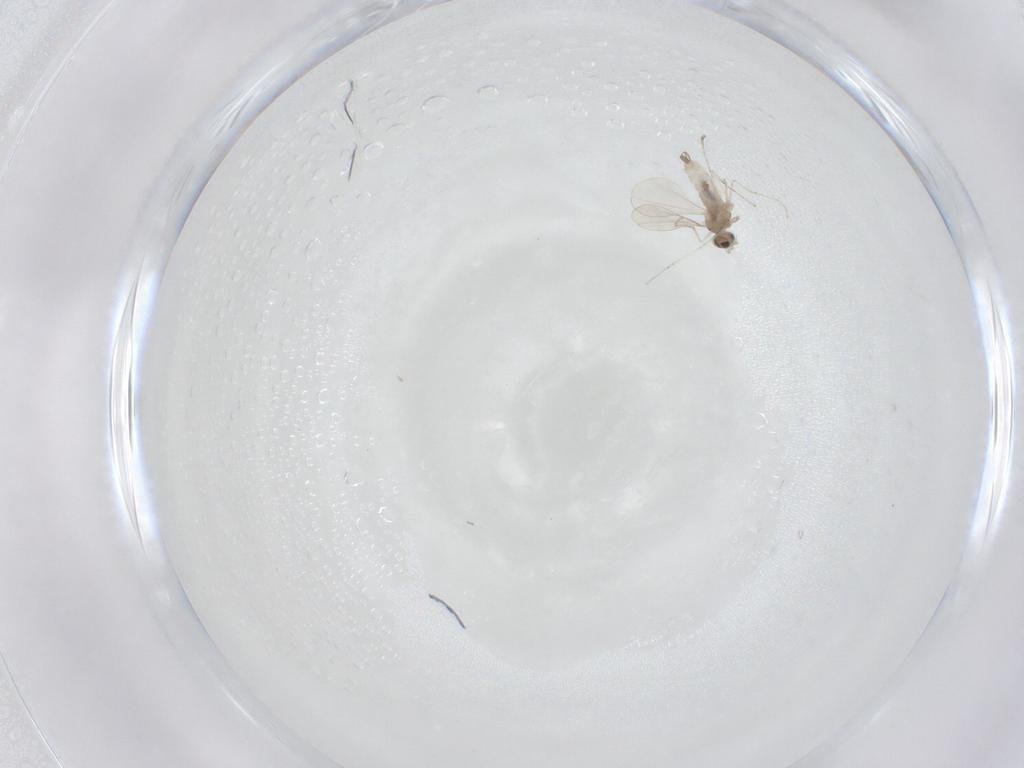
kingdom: Animalia
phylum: Arthropoda
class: Insecta
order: Diptera
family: Cecidomyiidae
